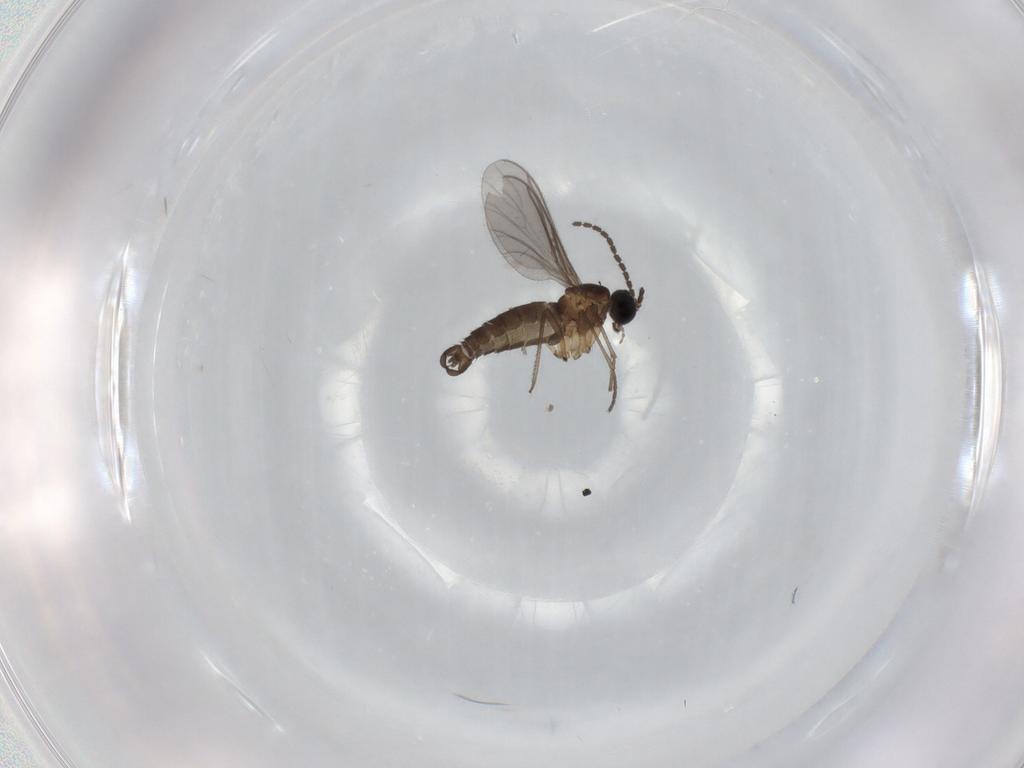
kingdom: Animalia
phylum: Arthropoda
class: Insecta
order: Diptera
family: Sciaridae
